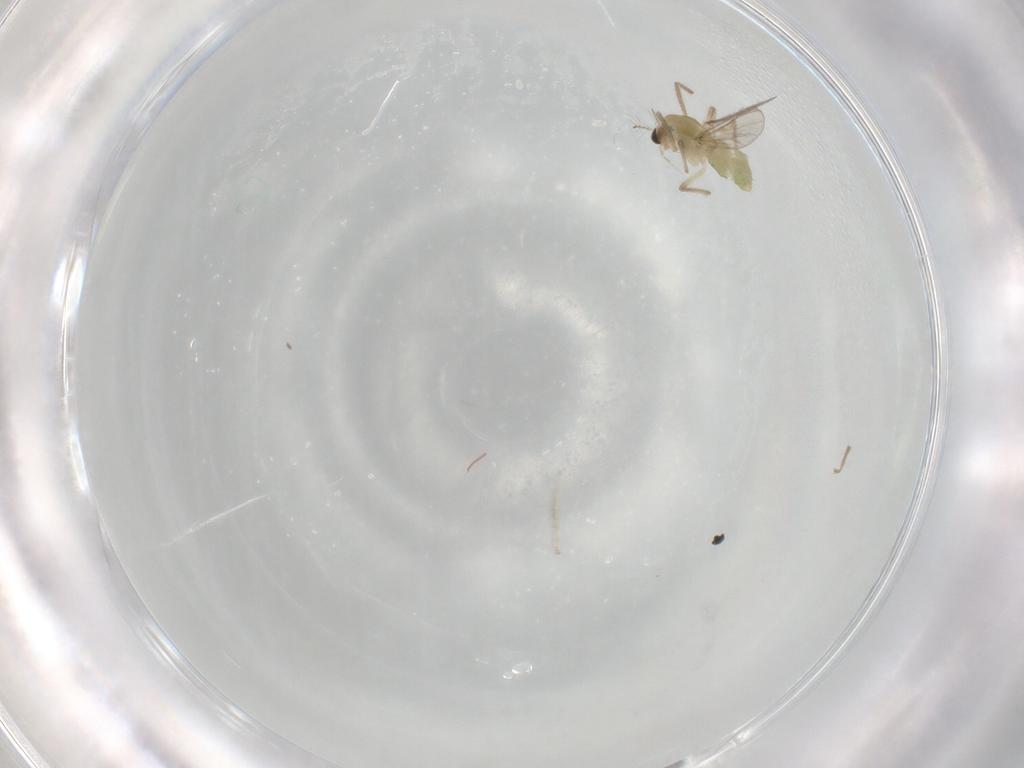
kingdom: Animalia
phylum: Arthropoda
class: Insecta
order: Diptera
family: Chironomidae
